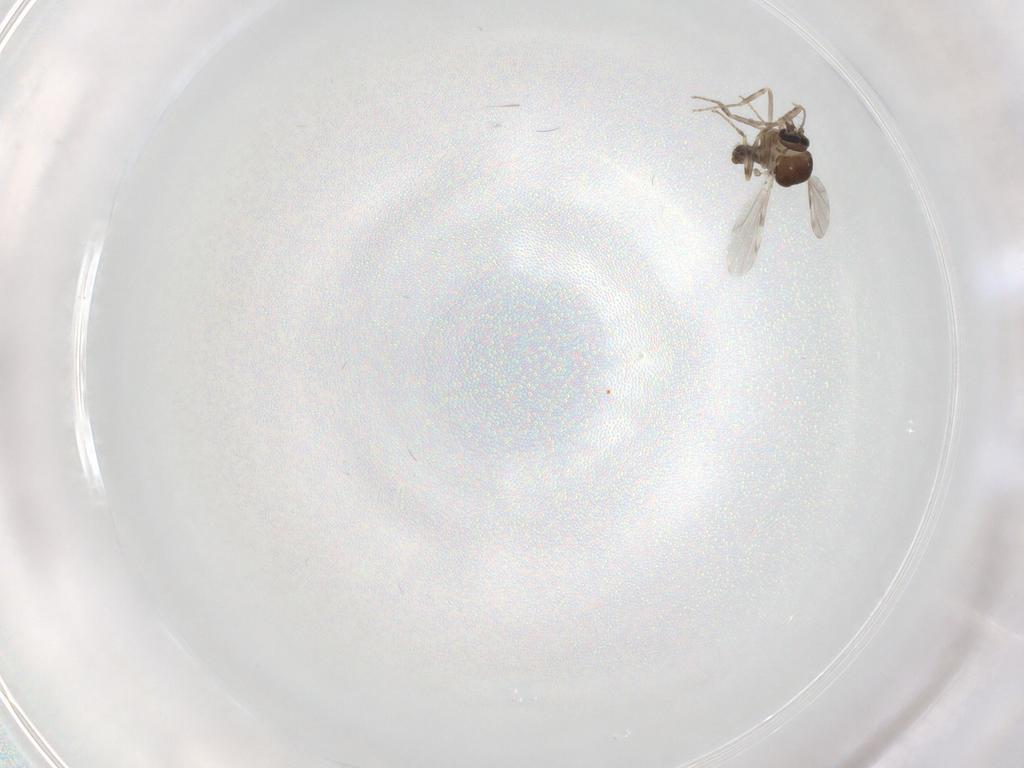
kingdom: Animalia
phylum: Arthropoda
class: Insecta
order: Diptera
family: Ceratopogonidae
